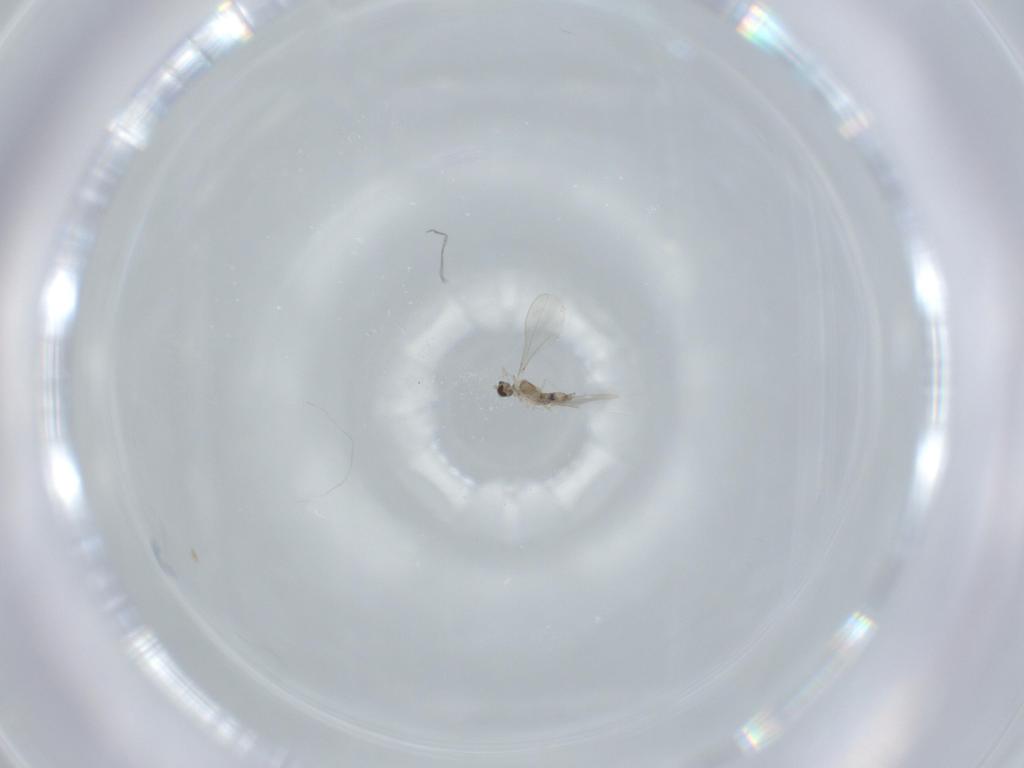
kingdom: Animalia
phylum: Arthropoda
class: Insecta
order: Diptera
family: Cecidomyiidae
